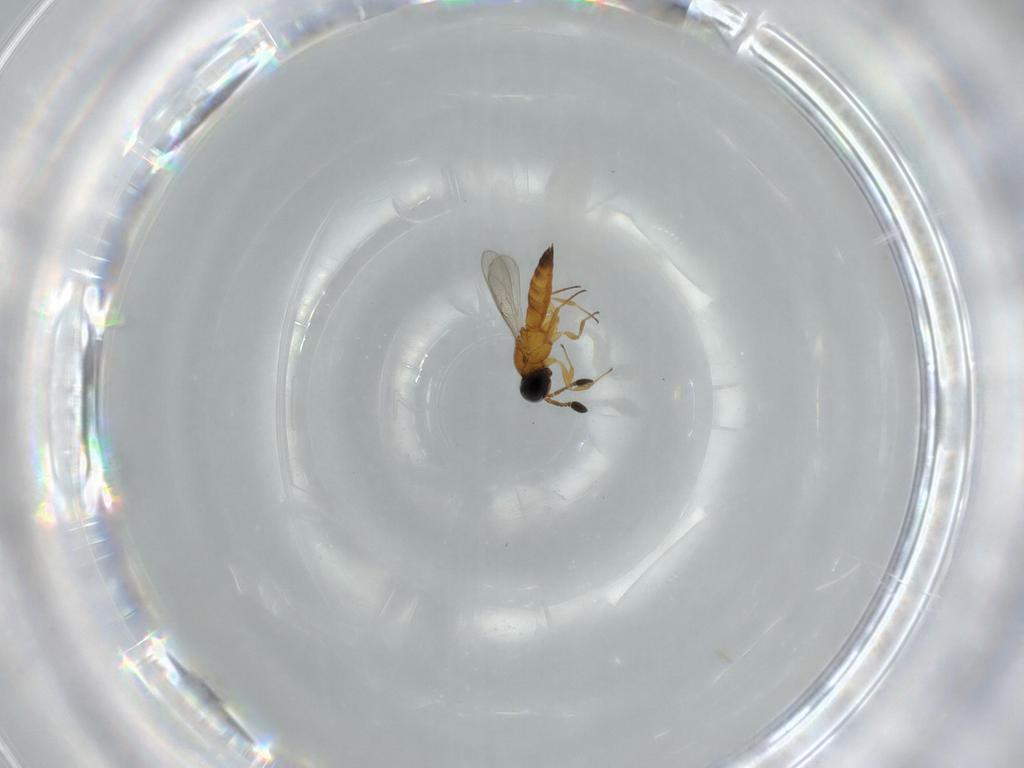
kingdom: Animalia
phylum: Arthropoda
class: Insecta
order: Hymenoptera
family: Scelionidae
